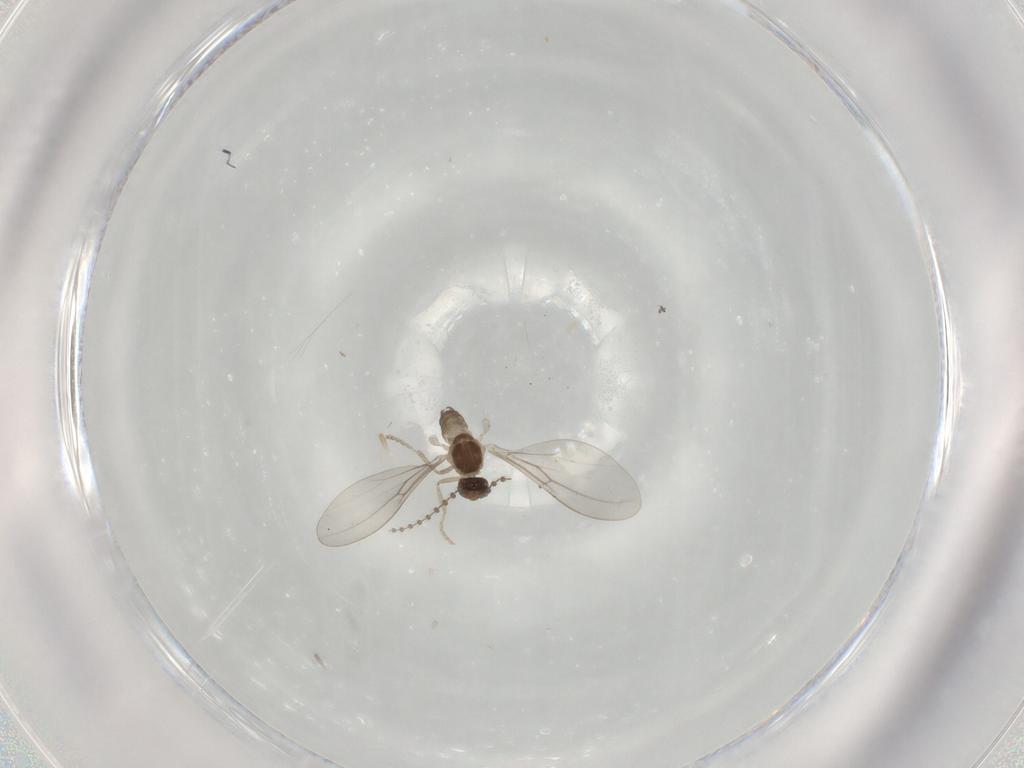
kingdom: Animalia
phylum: Arthropoda
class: Insecta
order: Diptera
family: Cecidomyiidae
